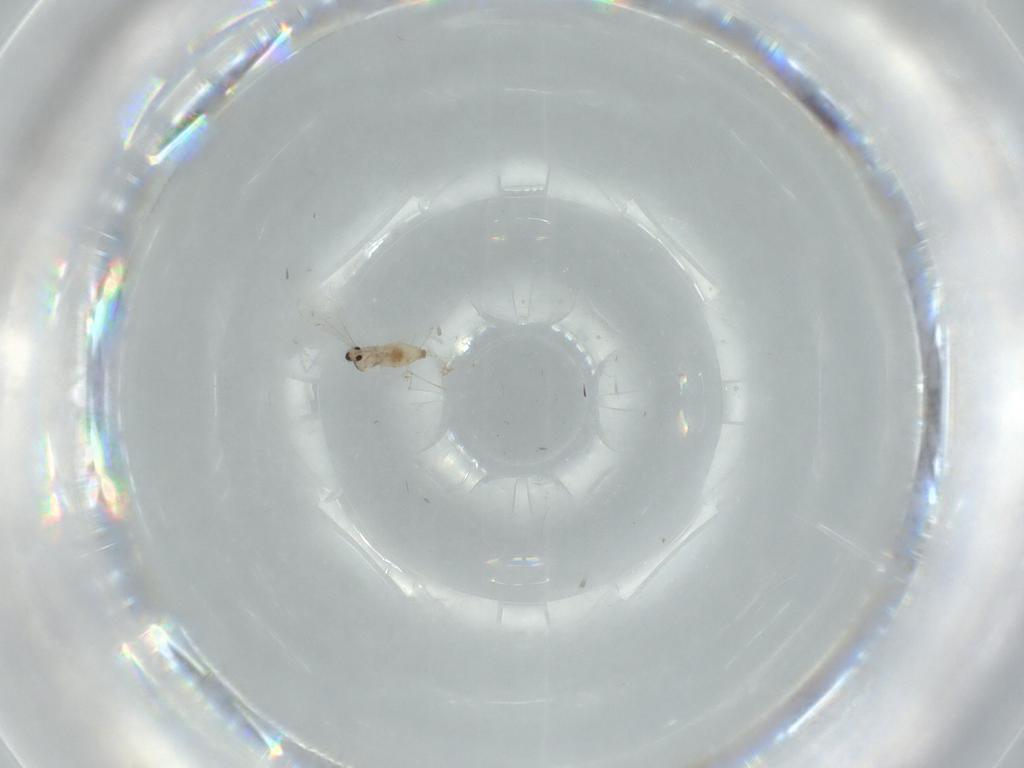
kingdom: Animalia
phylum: Arthropoda
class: Insecta
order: Diptera
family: Cecidomyiidae
